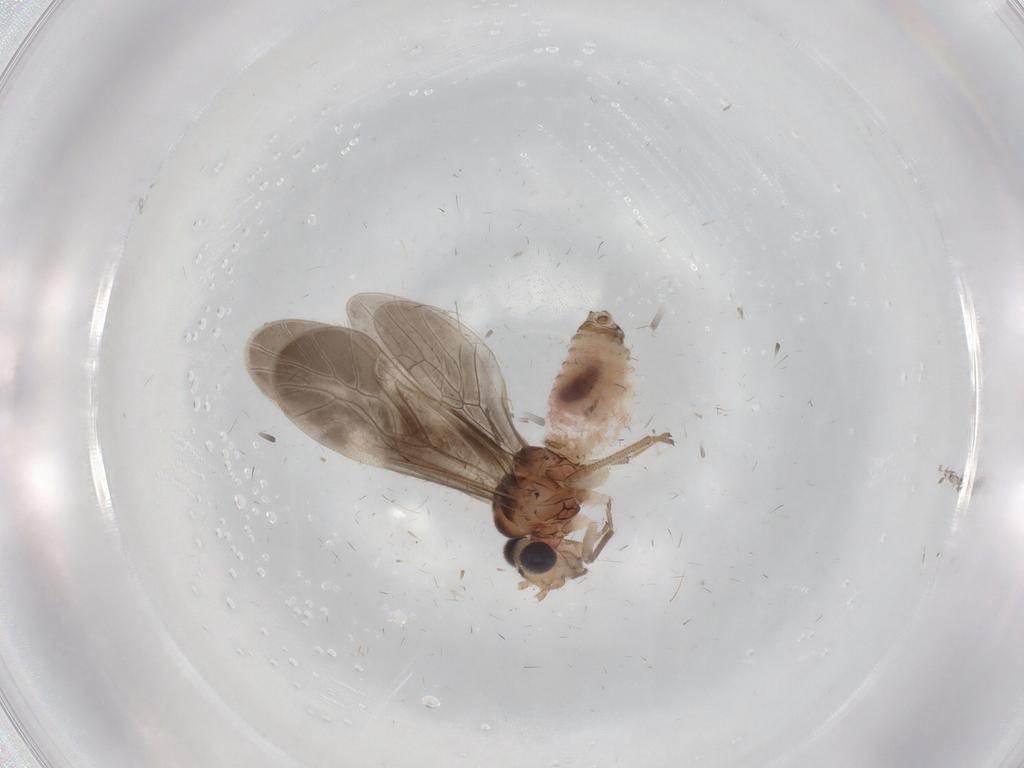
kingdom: Animalia
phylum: Arthropoda
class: Insecta
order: Psocodea
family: Caeciliusidae
